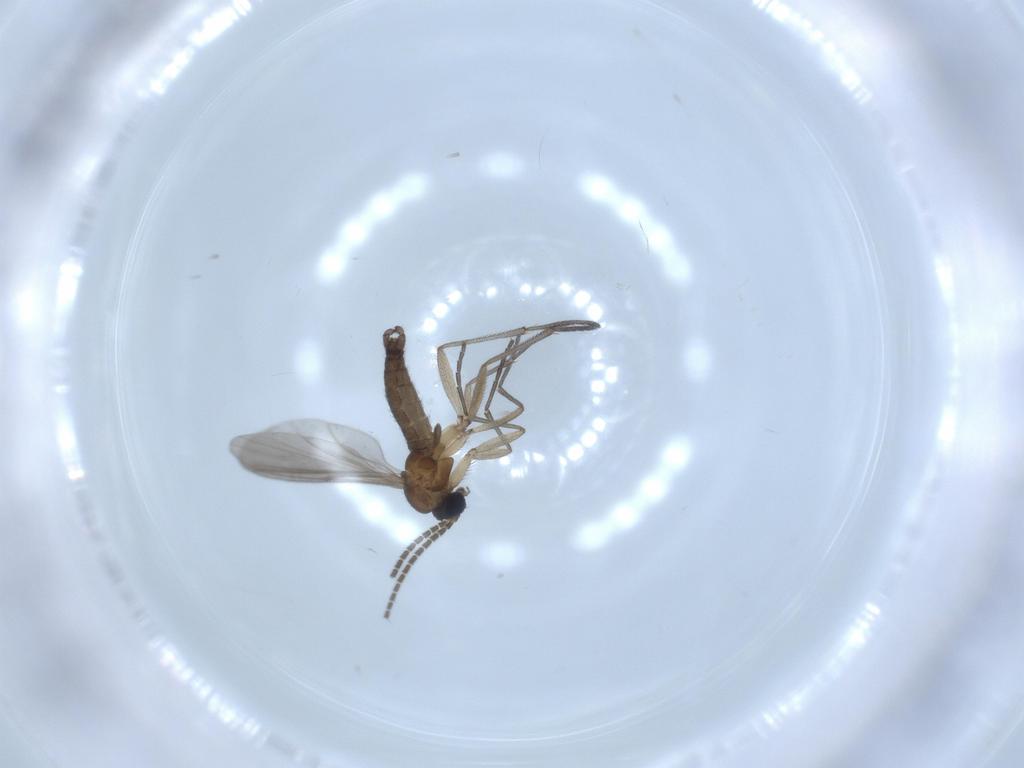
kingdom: Animalia
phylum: Arthropoda
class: Insecta
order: Diptera
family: Sciaridae
